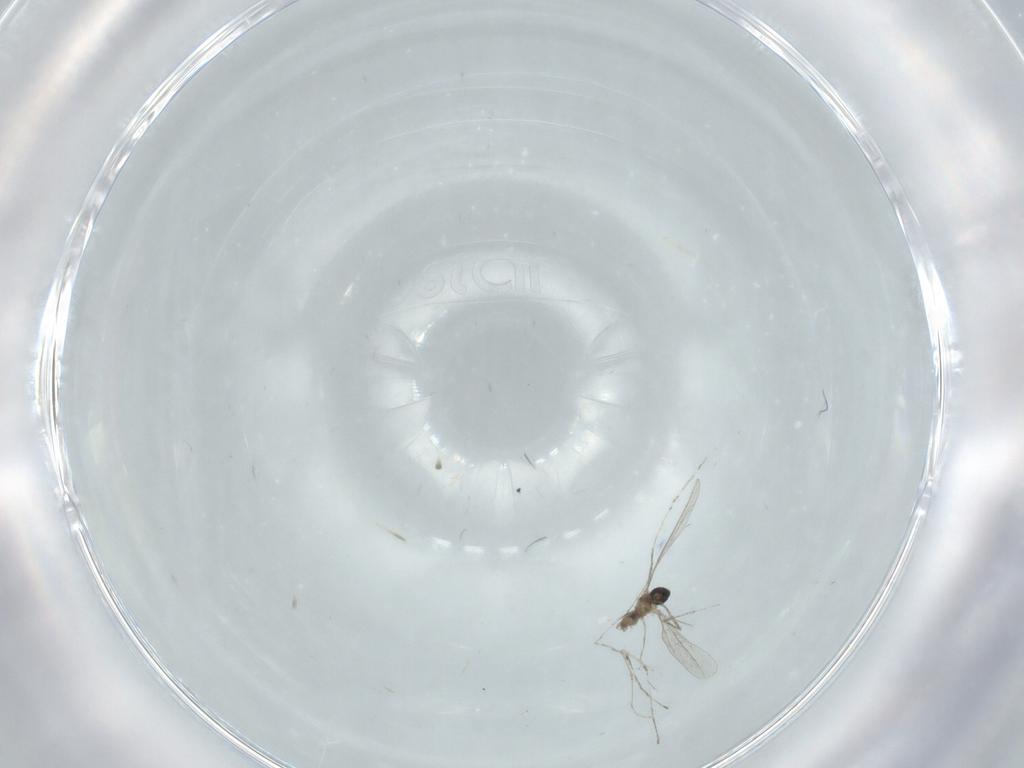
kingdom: Animalia
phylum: Arthropoda
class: Insecta
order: Diptera
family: Cecidomyiidae
